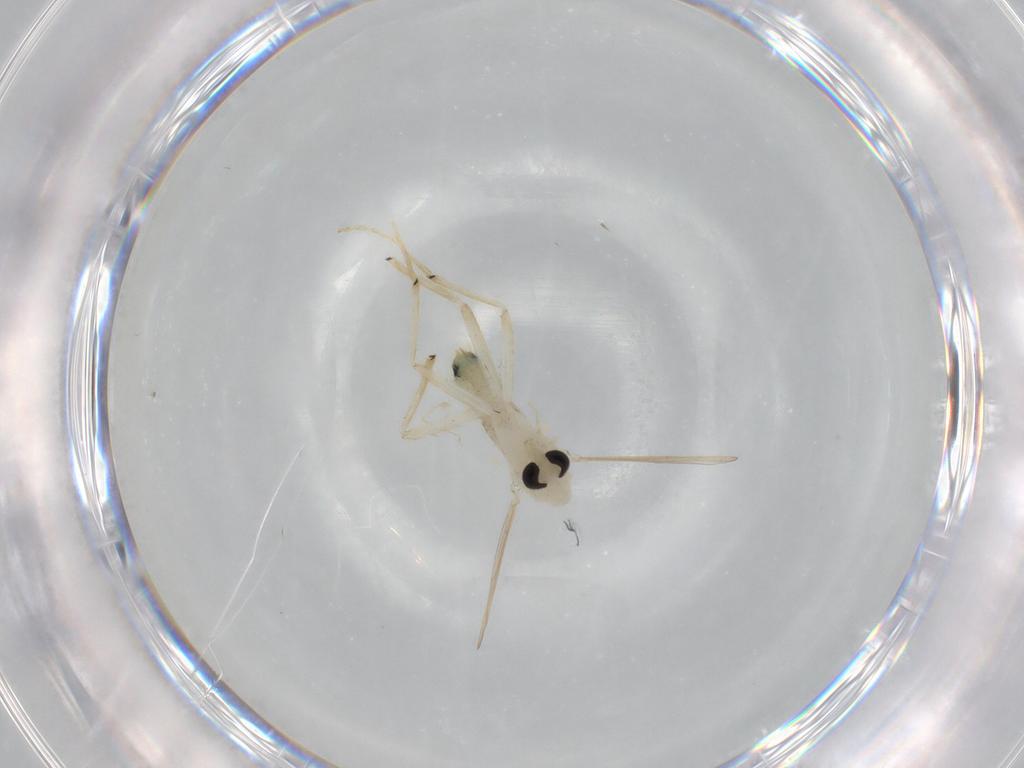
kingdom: Animalia
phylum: Arthropoda
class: Insecta
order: Diptera
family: Chironomidae
